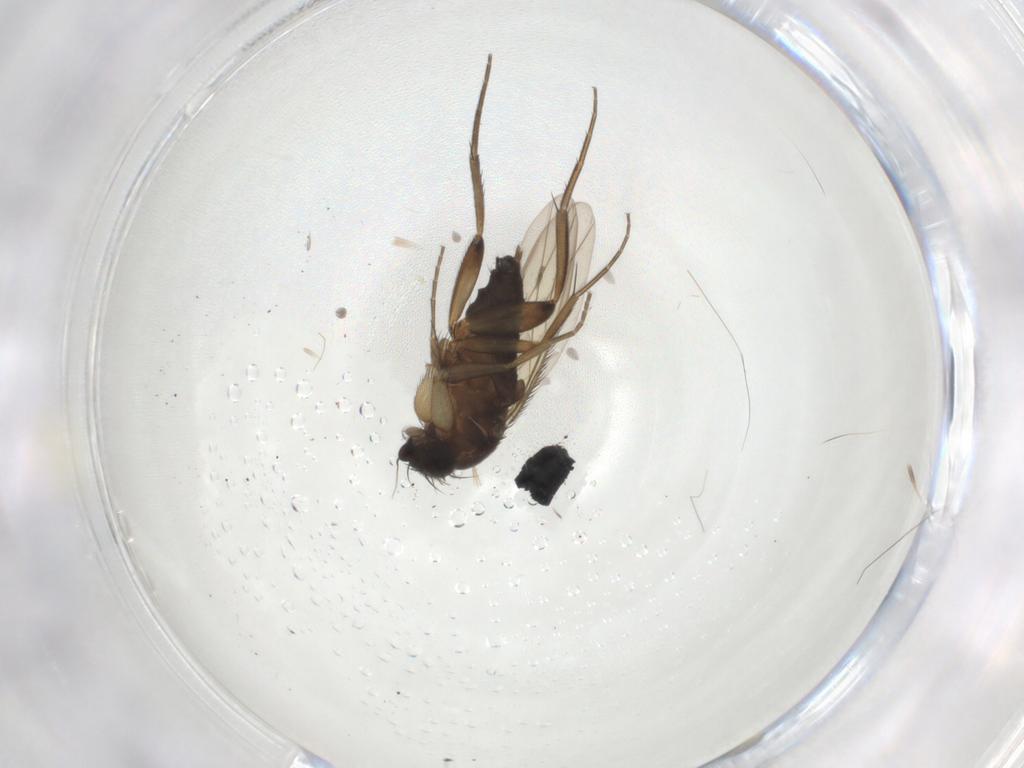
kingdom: Animalia
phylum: Arthropoda
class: Insecta
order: Diptera
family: Phoridae
